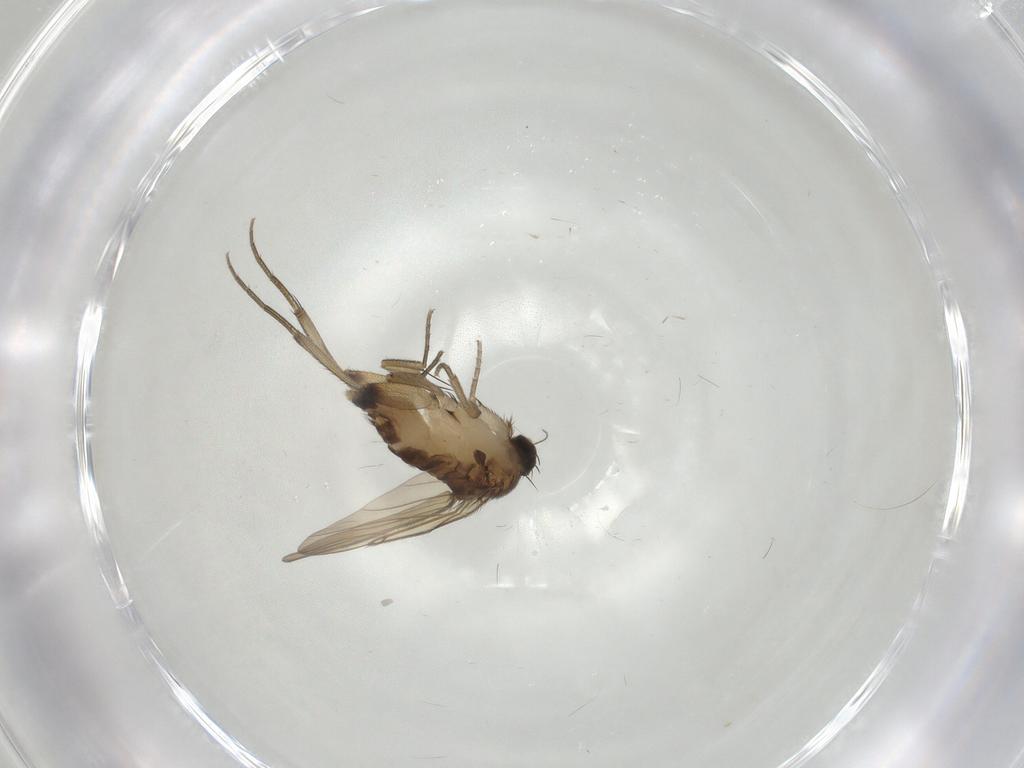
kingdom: Animalia
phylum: Arthropoda
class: Insecta
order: Diptera
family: Phoridae
